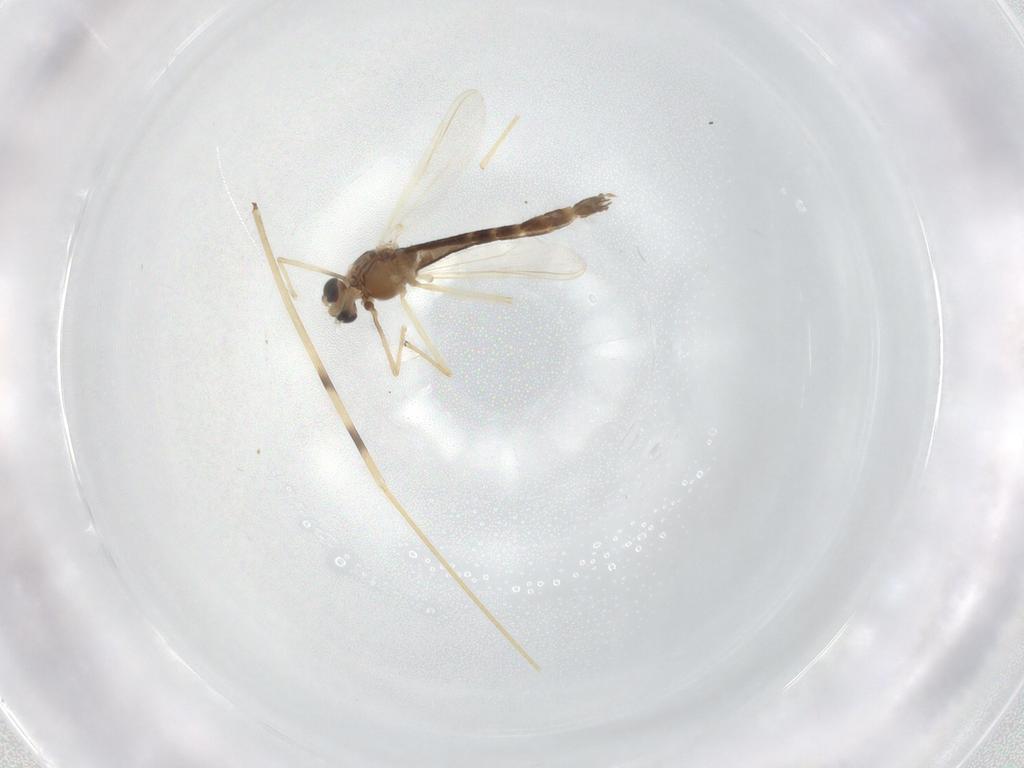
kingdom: Animalia
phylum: Arthropoda
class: Insecta
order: Diptera
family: Chironomidae
